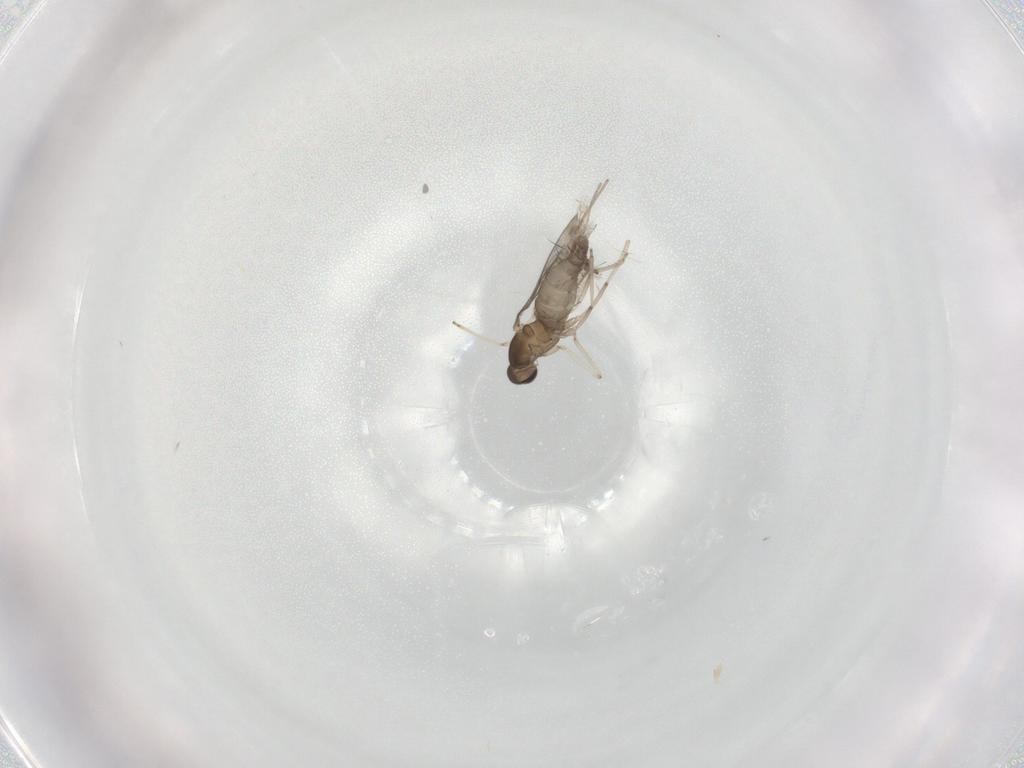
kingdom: Animalia
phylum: Arthropoda
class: Insecta
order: Diptera
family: Cecidomyiidae
